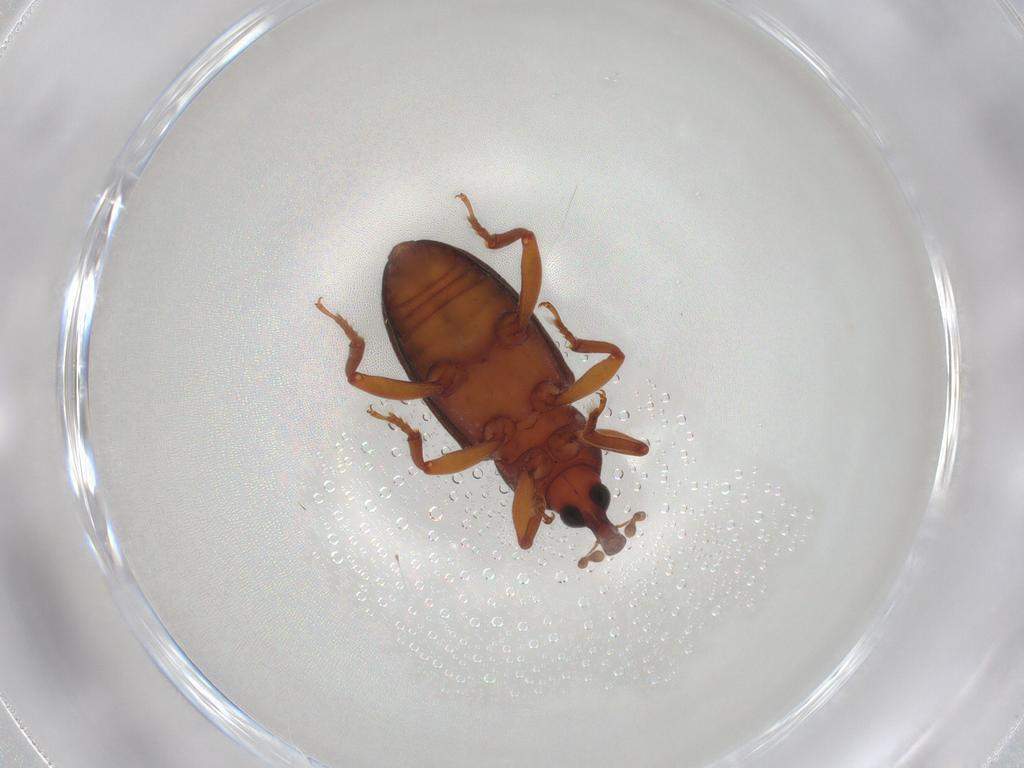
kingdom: Animalia
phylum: Arthropoda
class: Insecta
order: Coleoptera
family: Curculionidae
